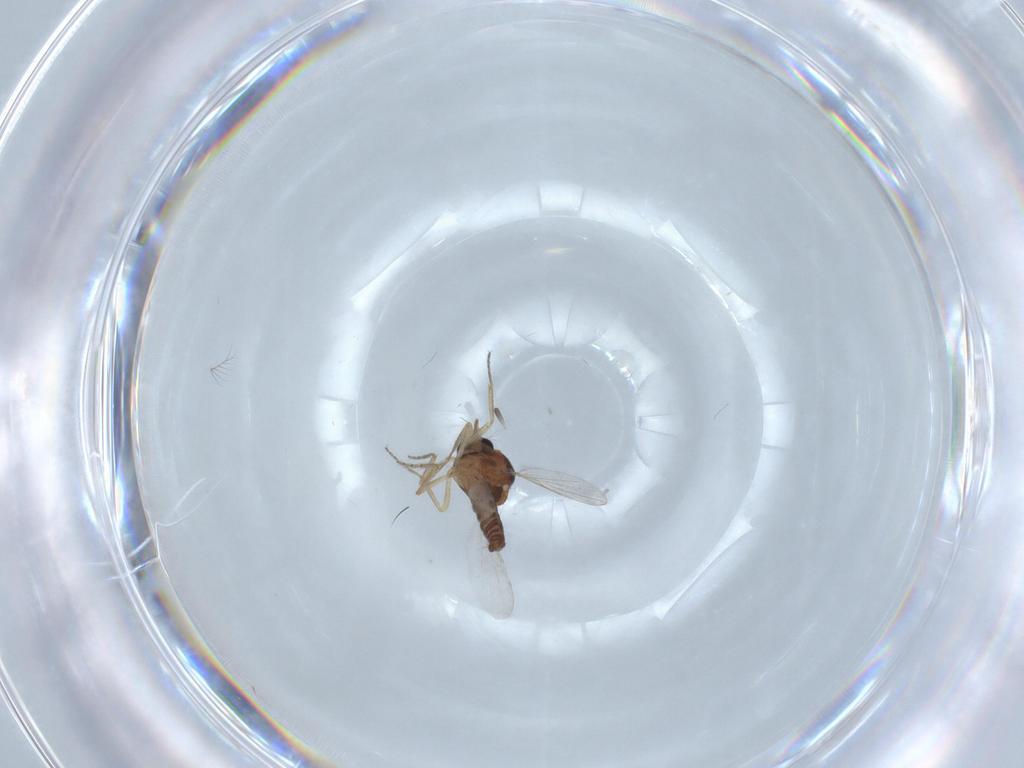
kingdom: Animalia
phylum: Arthropoda
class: Insecta
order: Diptera
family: Ceratopogonidae
